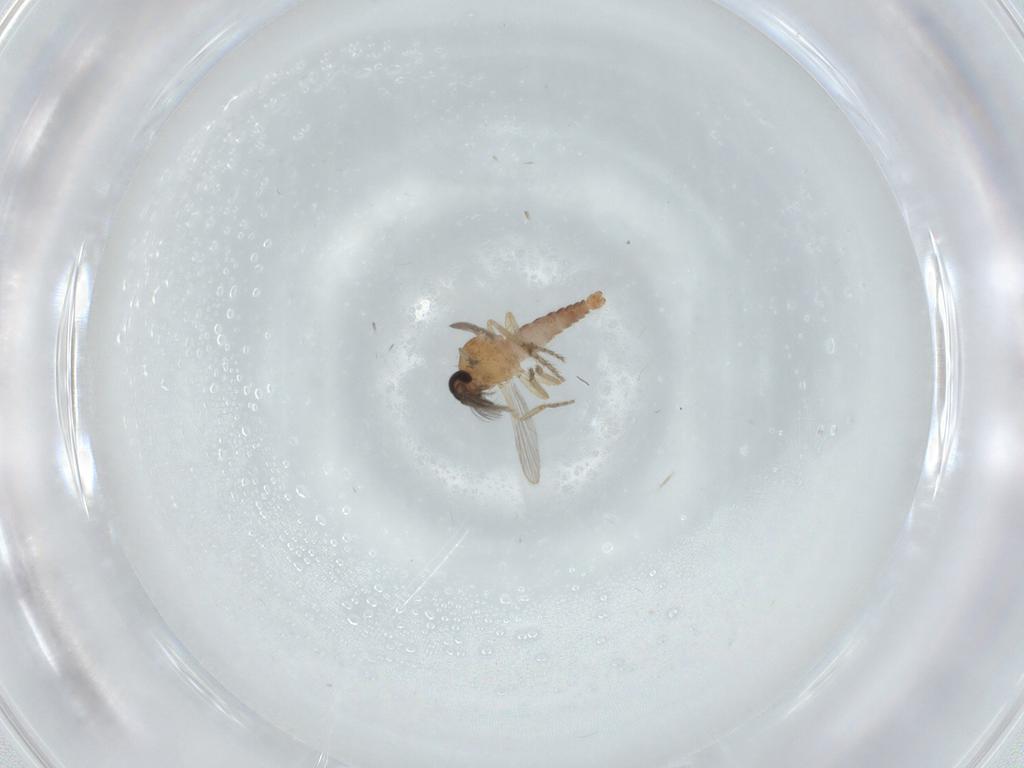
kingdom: Animalia
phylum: Arthropoda
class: Insecta
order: Diptera
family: Ceratopogonidae
